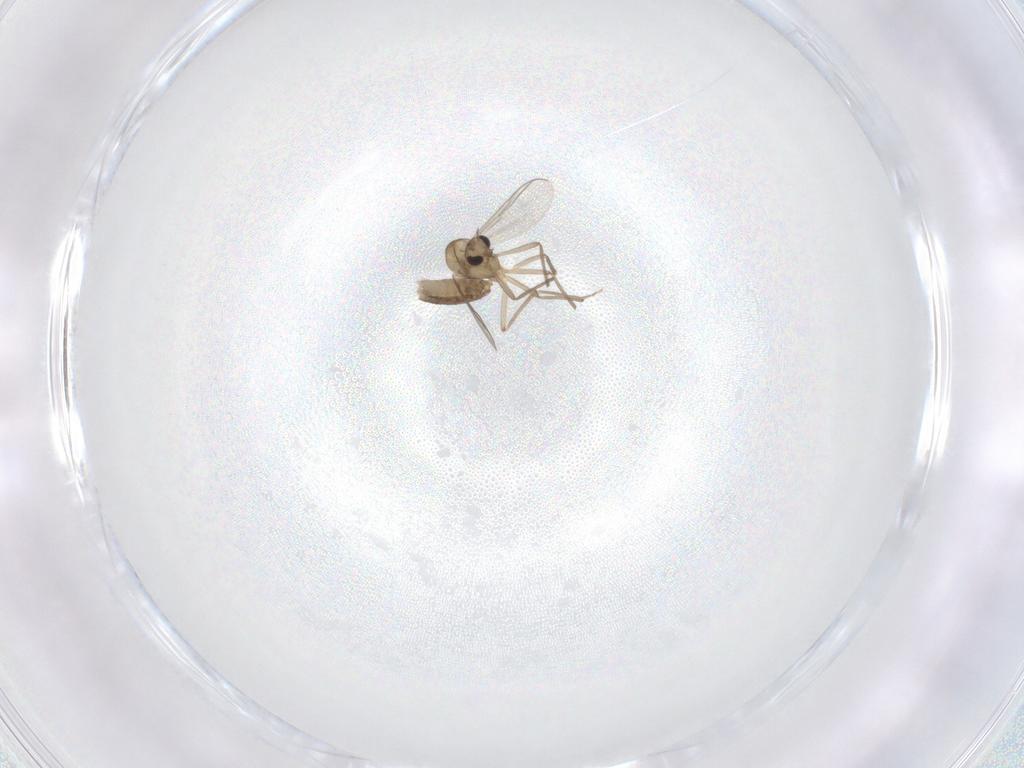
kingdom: Animalia
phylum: Arthropoda
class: Insecta
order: Diptera
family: Chironomidae
